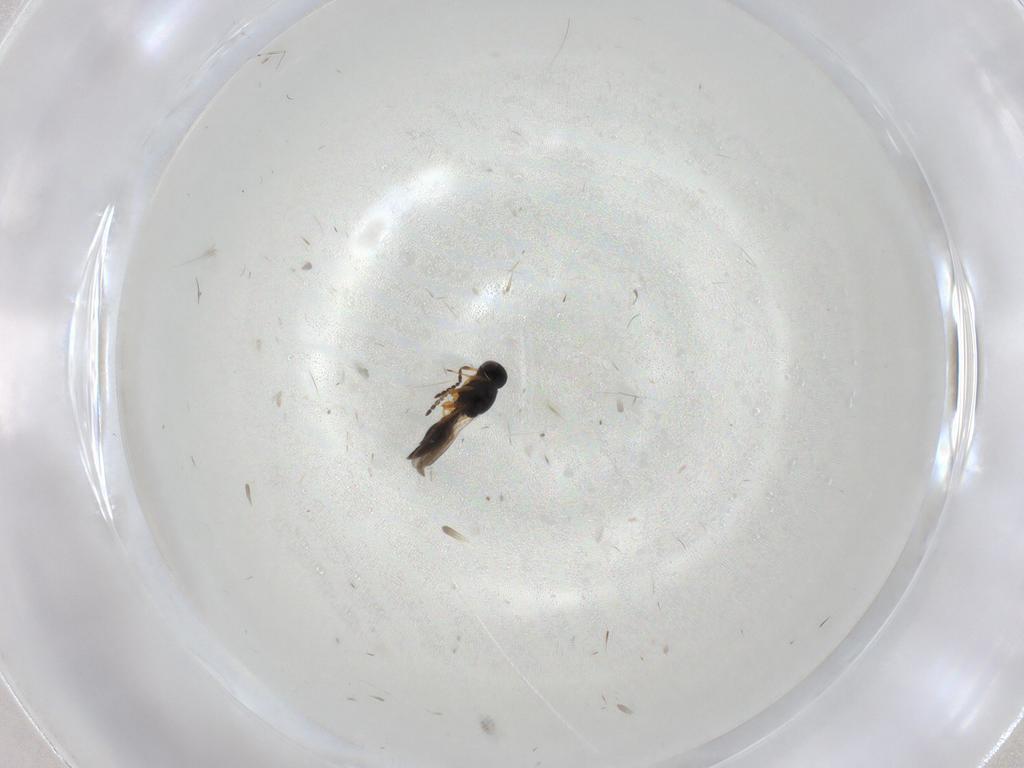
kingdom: Animalia
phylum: Arthropoda
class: Insecta
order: Hymenoptera
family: Platygastridae
